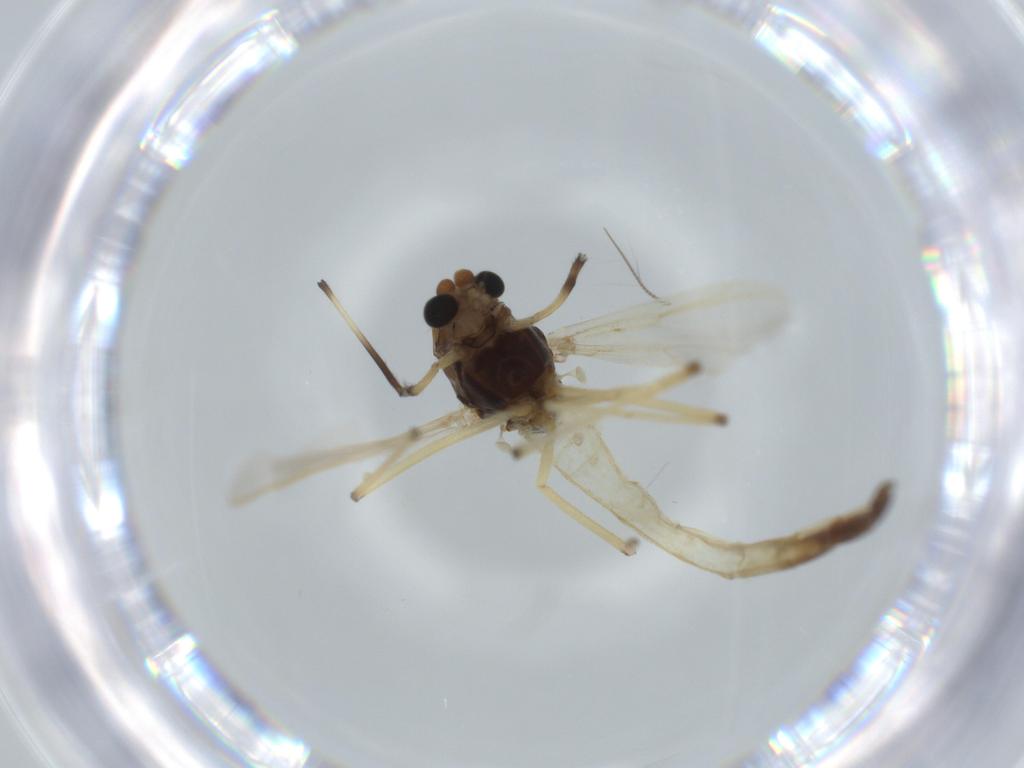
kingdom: Animalia
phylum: Arthropoda
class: Insecta
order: Diptera
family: Chironomidae
